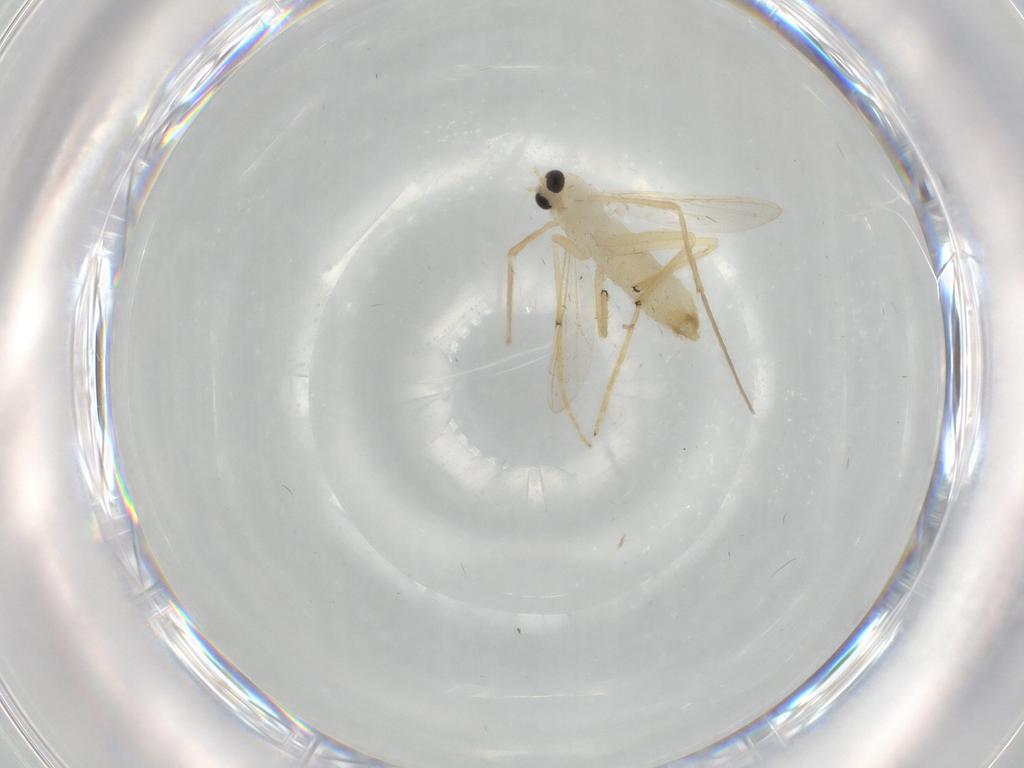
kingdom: Animalia
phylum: Arthropoda
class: Insecta
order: Diptera
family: Chironomidae
